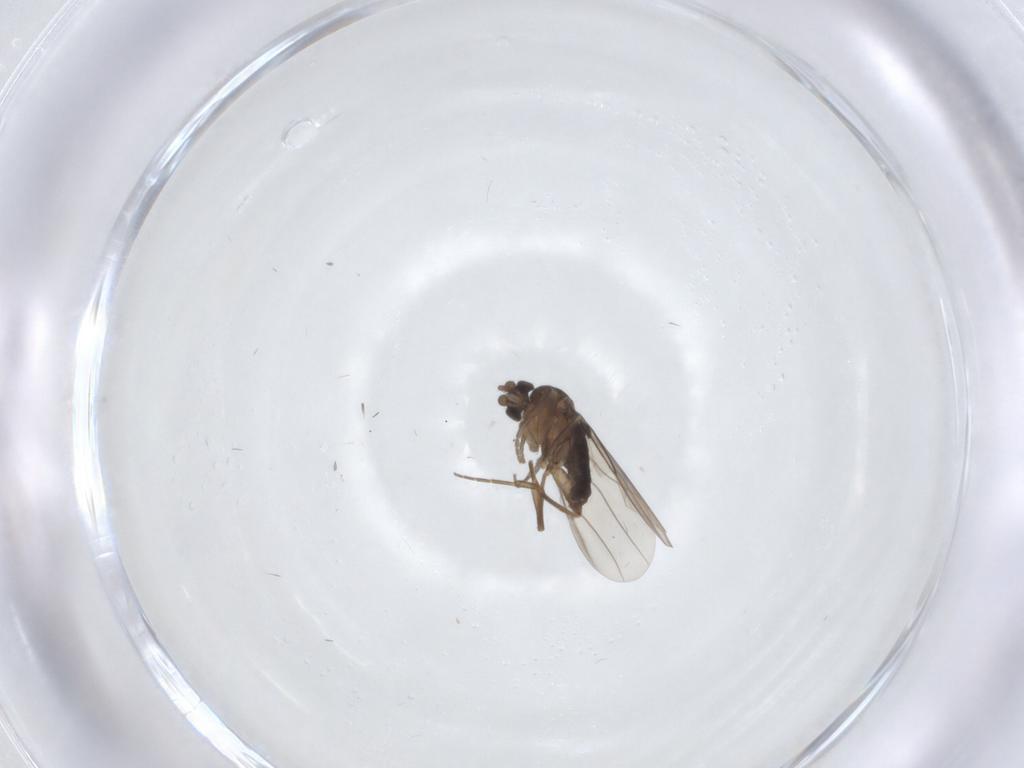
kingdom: Animalia
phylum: Arthropoda
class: Insecta
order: Diptera
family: Phoridae
